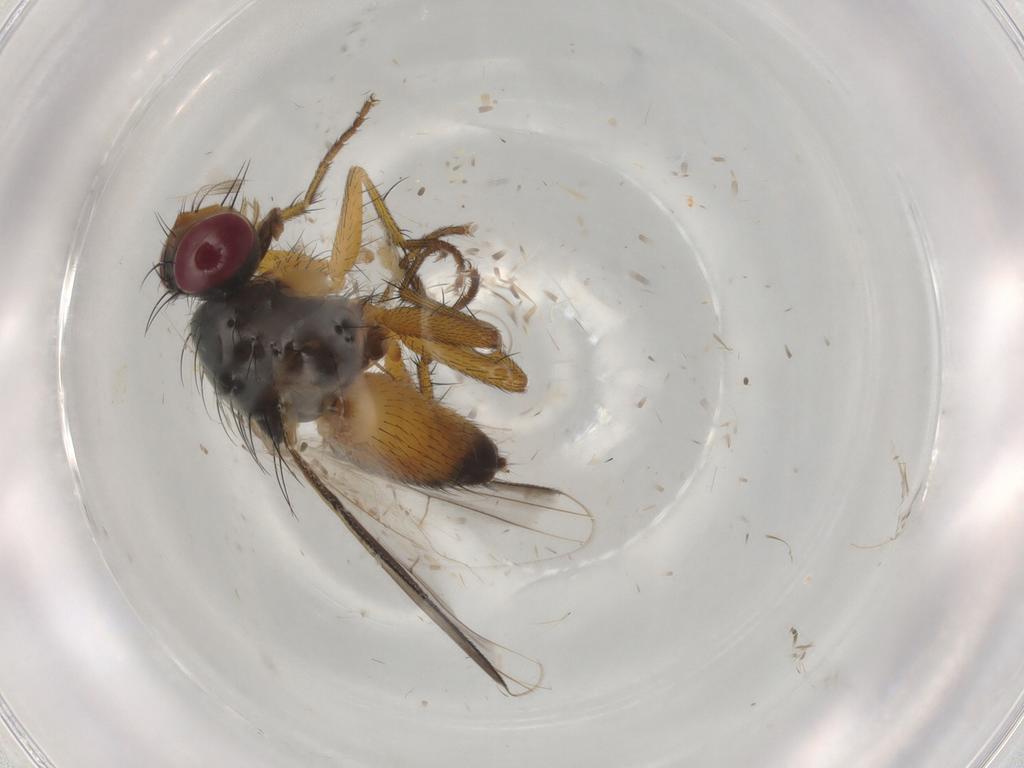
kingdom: Animalia
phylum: Arthropoda
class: Insecta
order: Diptera
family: Muscidae
